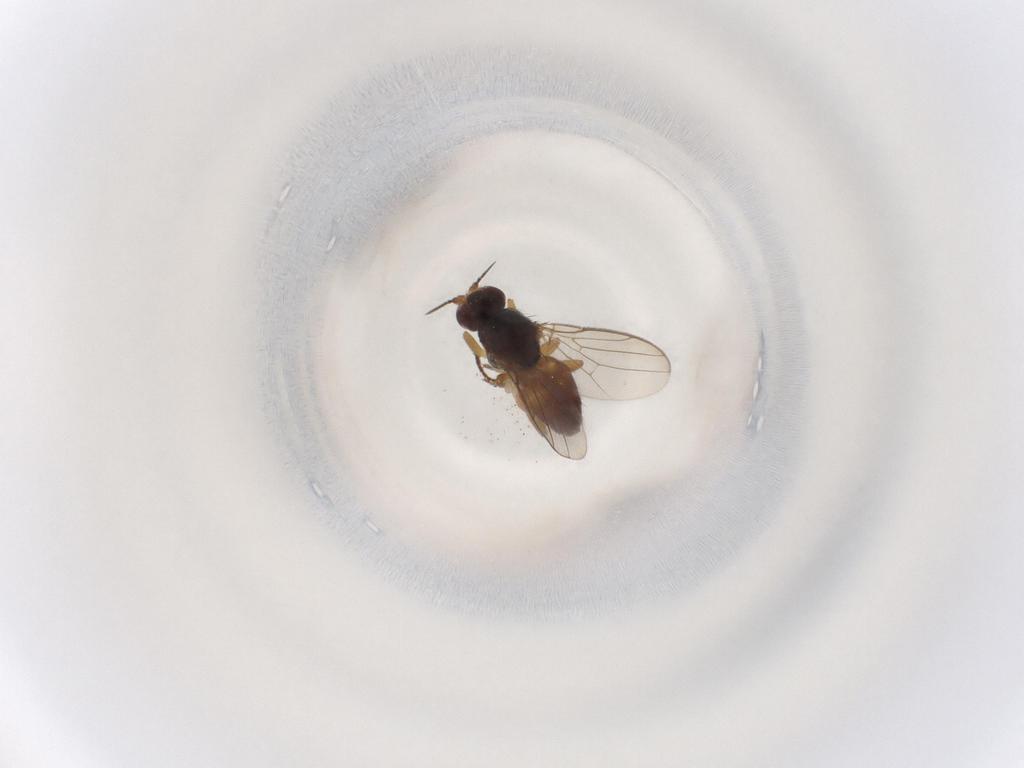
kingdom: Animalia
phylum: Arthropoda
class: Insecta
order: Diptera
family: Chloropidae
